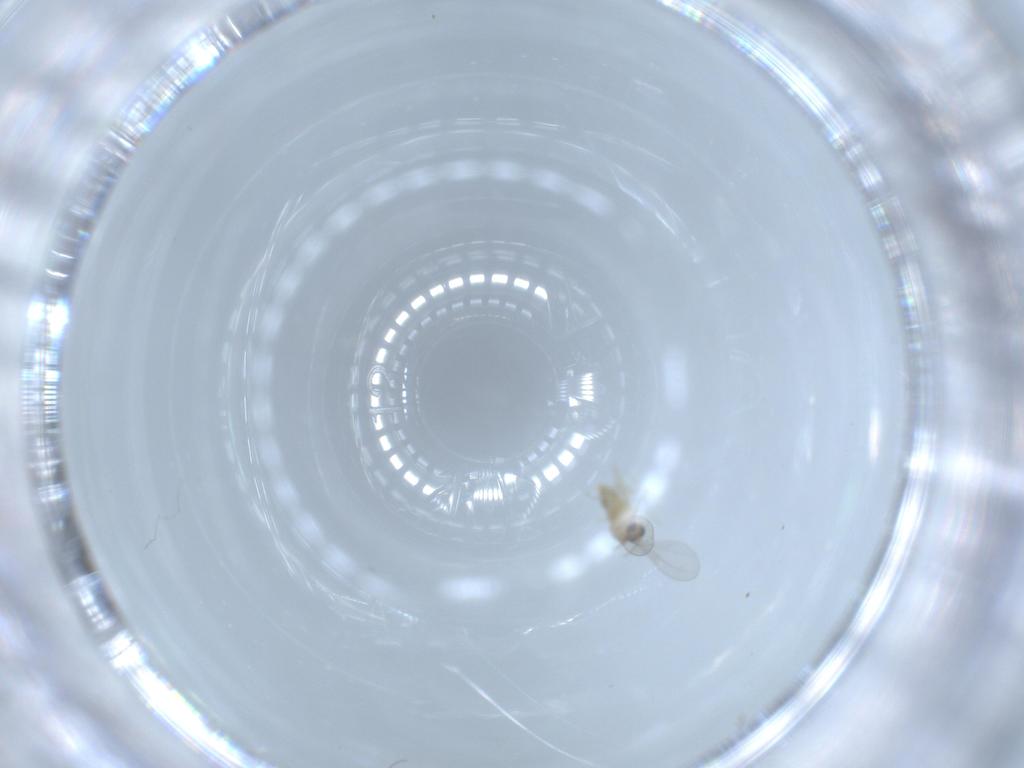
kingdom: Animalia
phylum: Arthropoda
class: Insecta
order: Diptera
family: Cecidomyiidae
